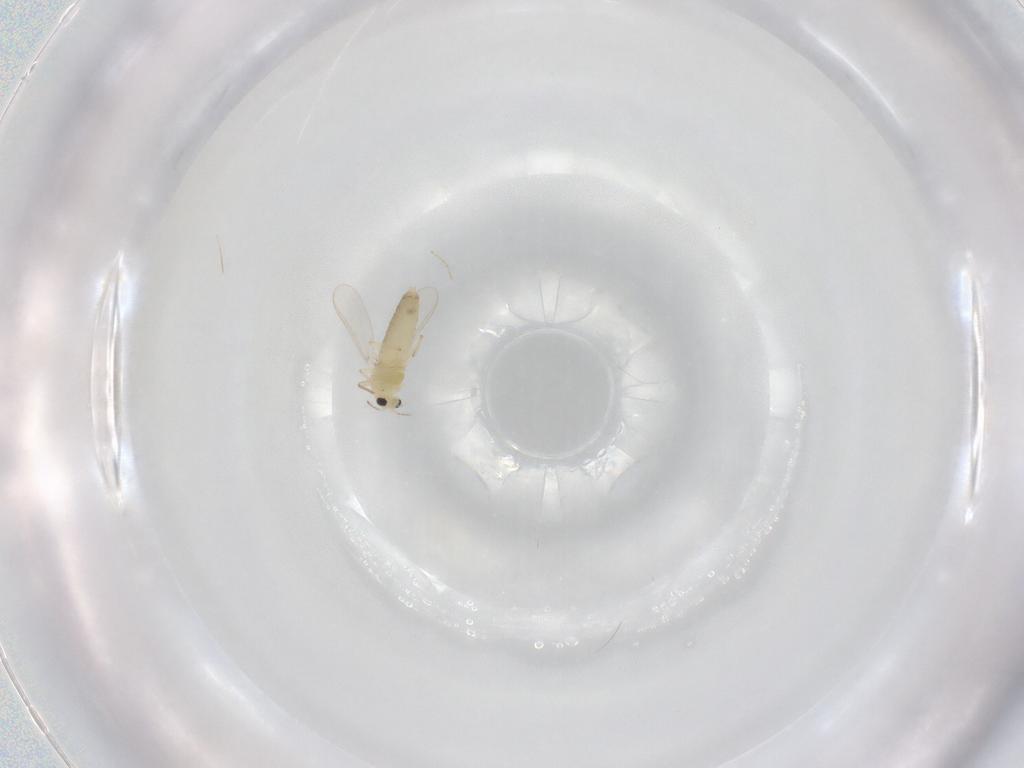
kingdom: Animalia
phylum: Arthropoda
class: Insecta
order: Diptera
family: Chironomidae
